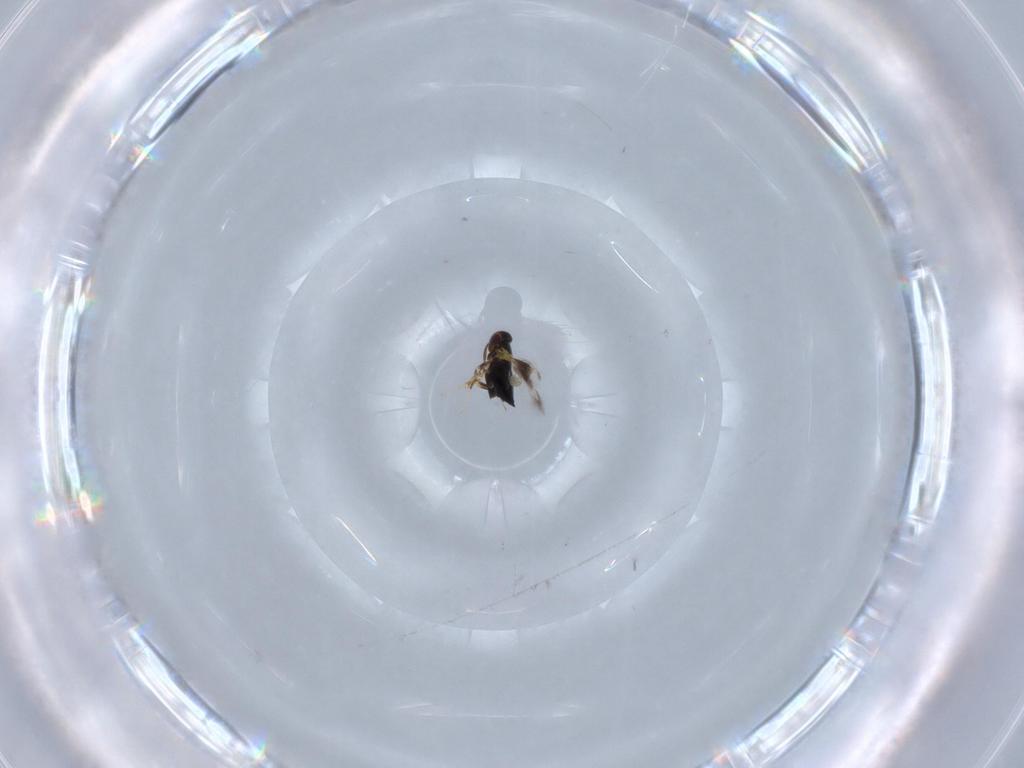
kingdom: Animalia
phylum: Arthropoda
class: Insecta
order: Hymenoptera
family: Signiphoridae
